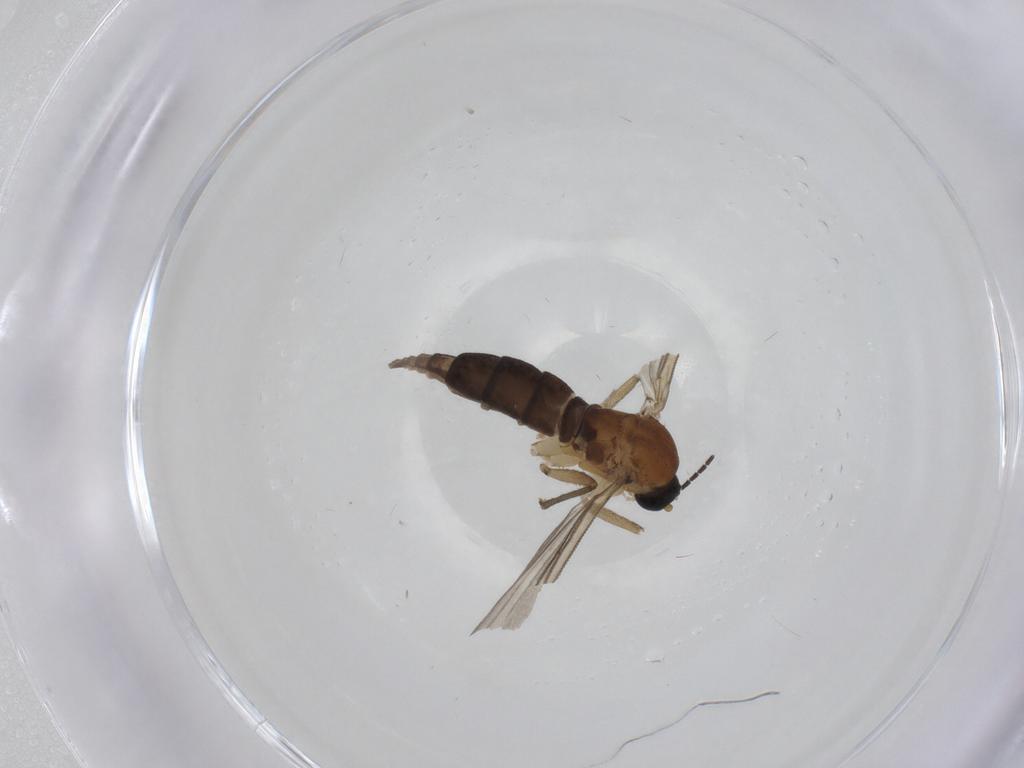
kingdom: Animalia
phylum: Arthropoda
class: Insecta
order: Diptera
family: Sciaridae
